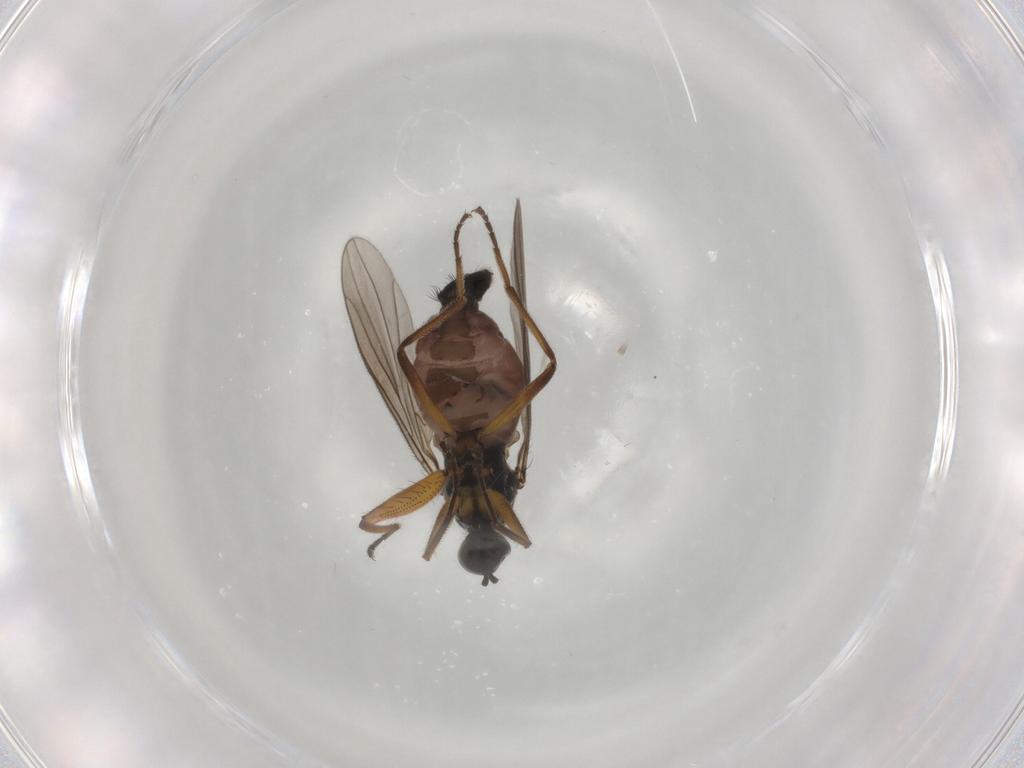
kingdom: Animalia
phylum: Arthropoda
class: Insecta
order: Diptera
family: Hybotidae
